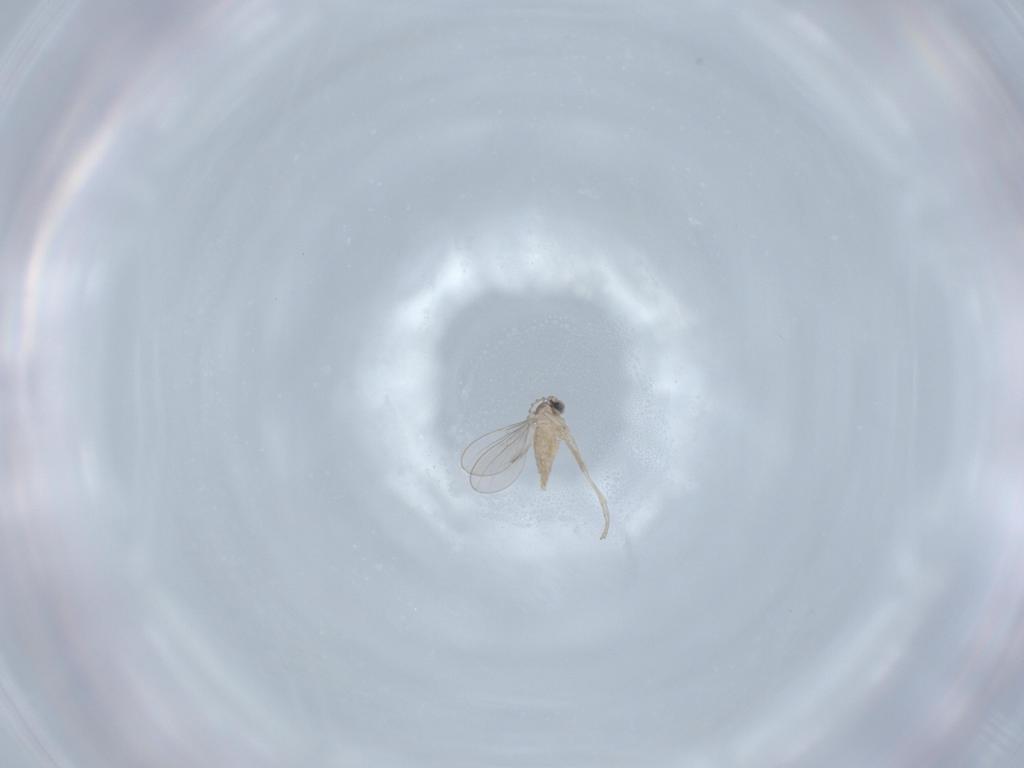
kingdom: Animalia
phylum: Arthropoda
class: Insecta
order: Diptera
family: Cecidomyiidae
